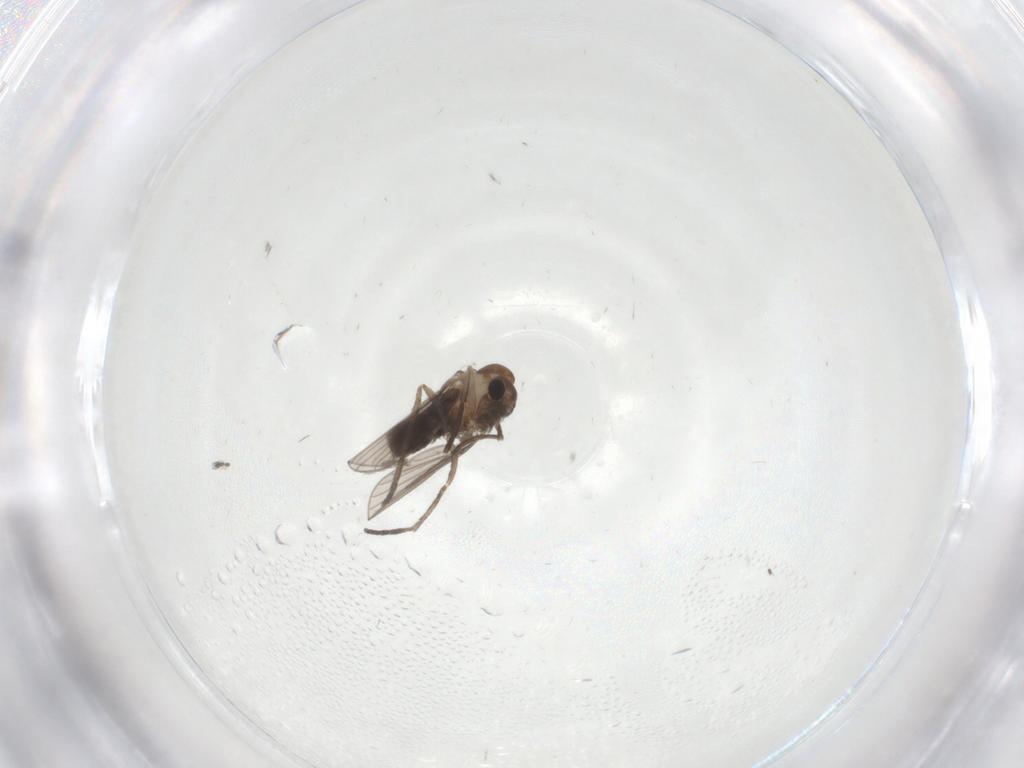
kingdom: Animalia
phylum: Arthropoda
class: Insecta
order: Diptera
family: Psychodidae
